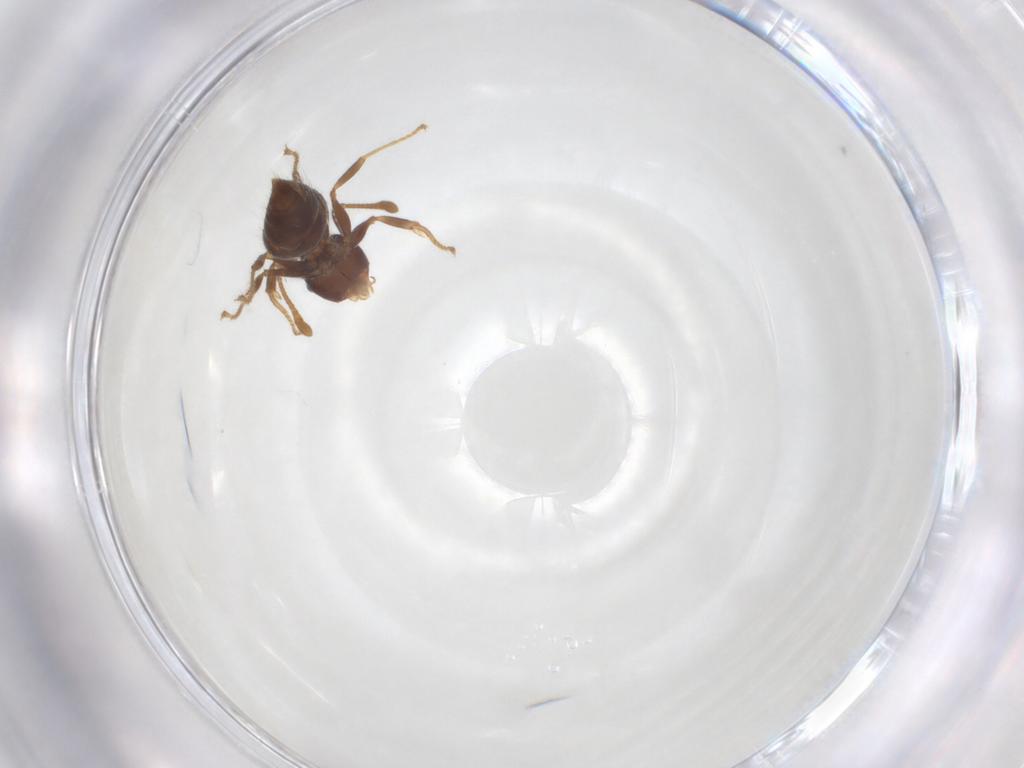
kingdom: Animalia
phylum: Arthropoda
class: Insecta
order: Hymenoptera
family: Formicidae
